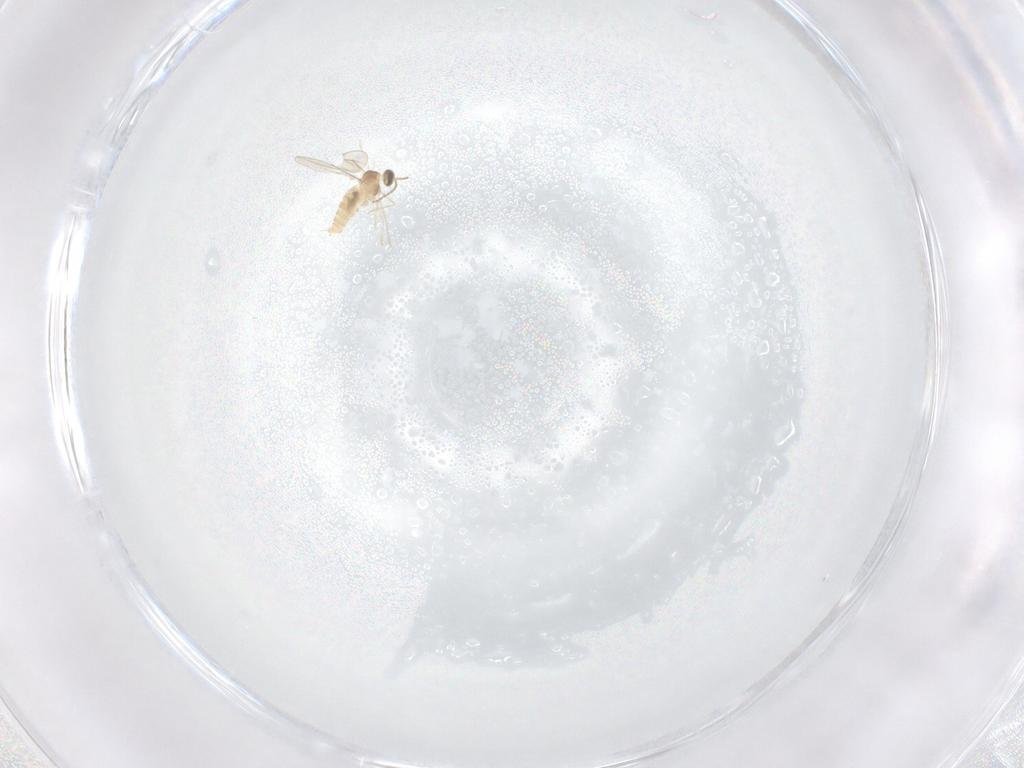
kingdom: Animalia
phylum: Arthropoda
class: Insecta
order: Diptera
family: Cecidomyiidae
